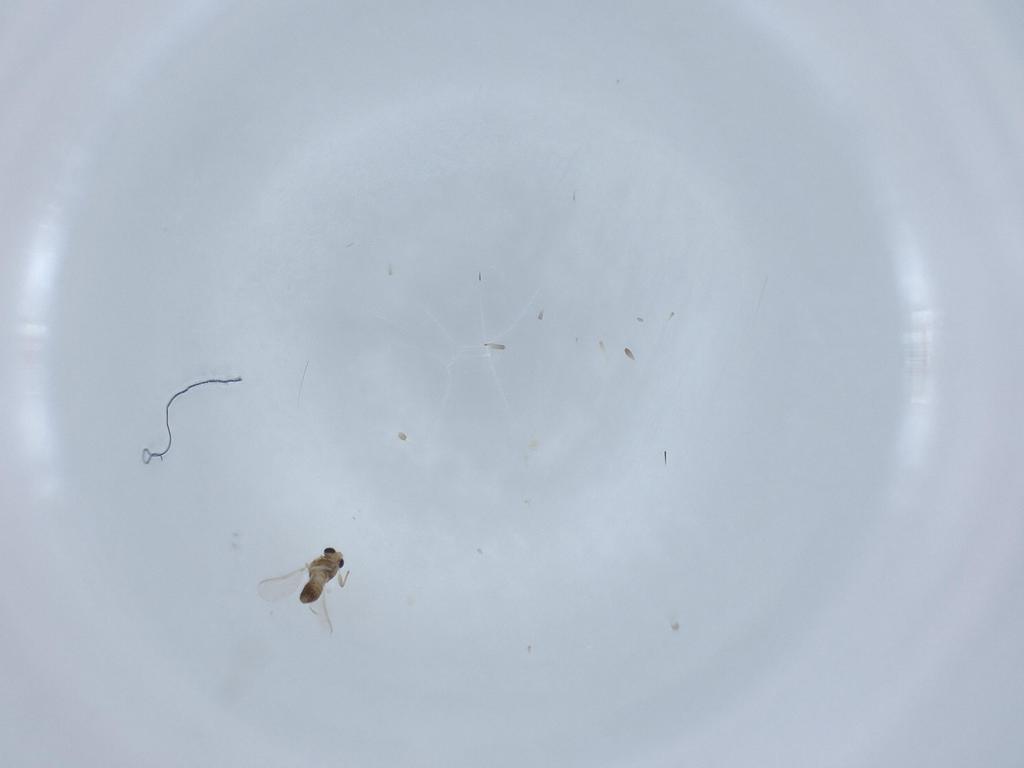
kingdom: Animalia
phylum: Arthropoda
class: Insecta
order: Diptera
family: Chironomidae
